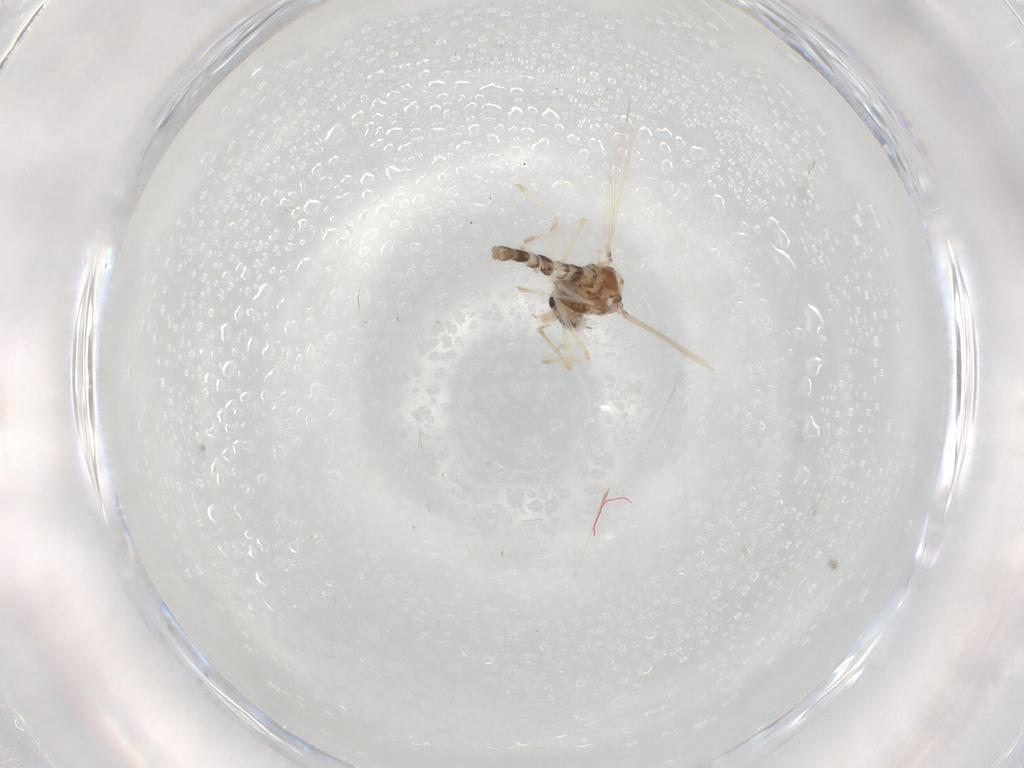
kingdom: Animalia
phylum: Arthropoda
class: Insecta
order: Diptera
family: Chironomidae
